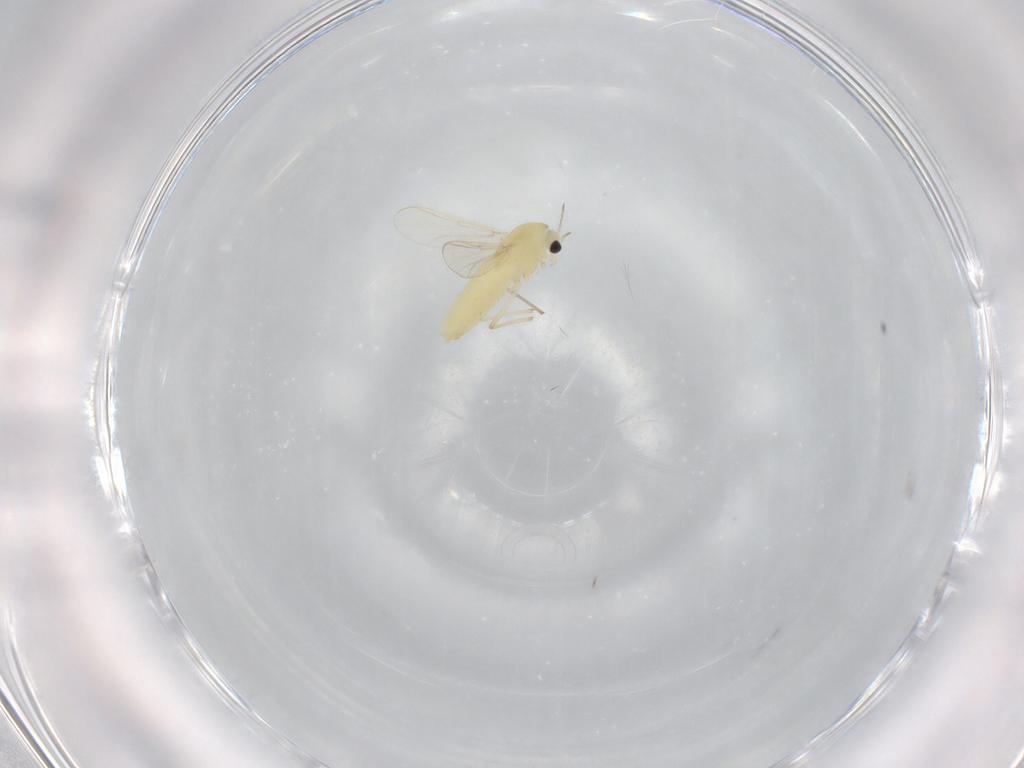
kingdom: Animalia
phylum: Arthropoda
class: Insecta
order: Diptera
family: Chironomidae
